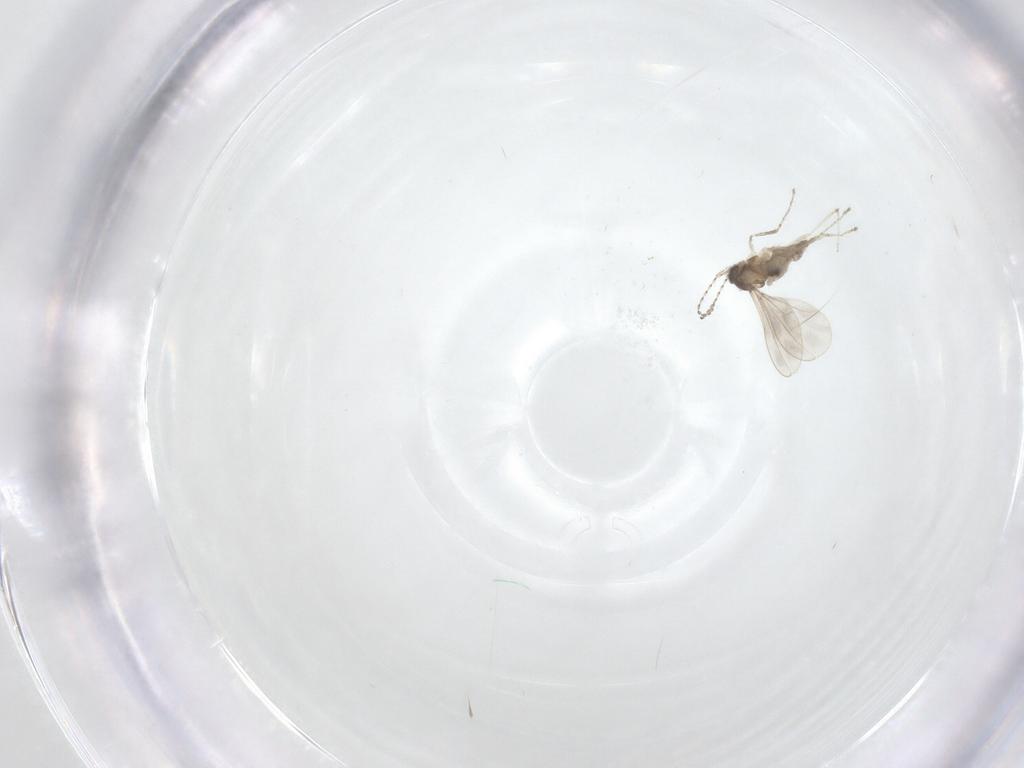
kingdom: Animalia
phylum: Arthropoda
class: Insecta
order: Diptera
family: Cecidomyiidae
